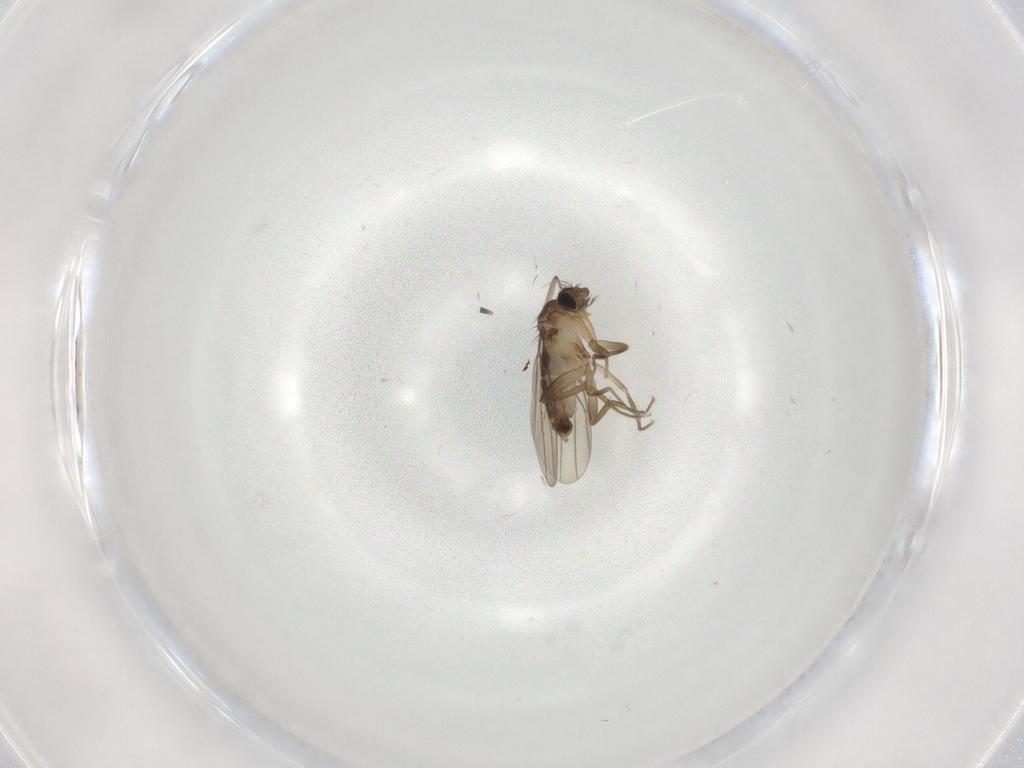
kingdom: Animalia
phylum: Arthropoda
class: Insecta
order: Diptera
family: Phoridae
